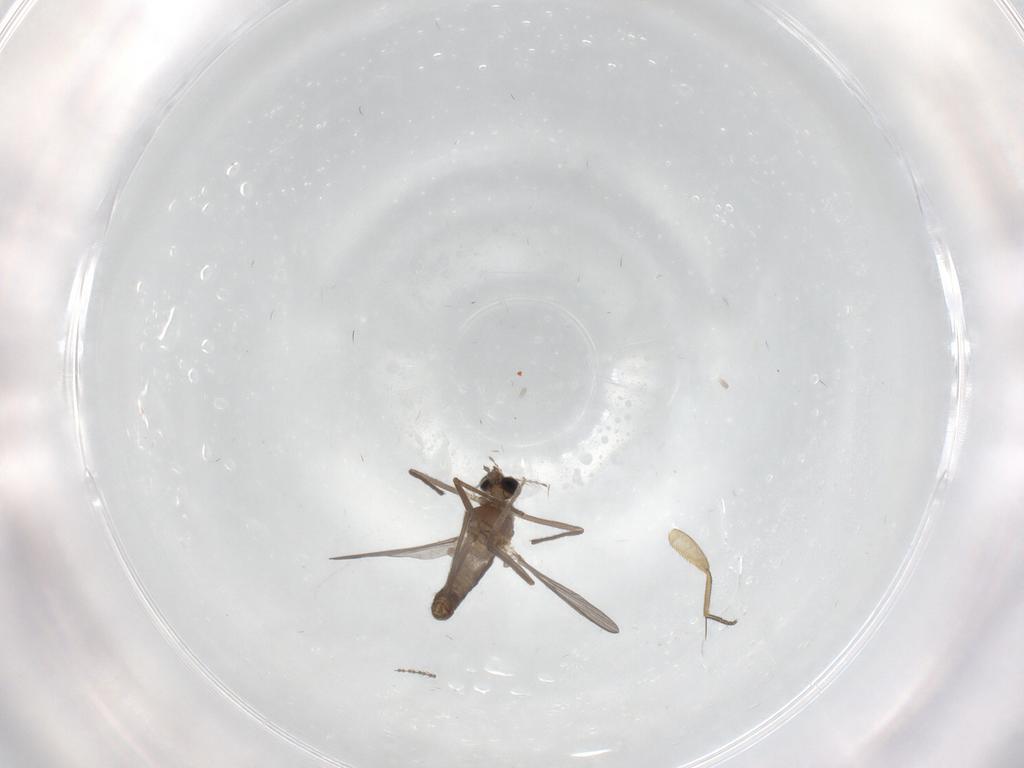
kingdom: Animalia
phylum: Arthropoda
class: Insecta
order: Diptera
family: Chironomidae
